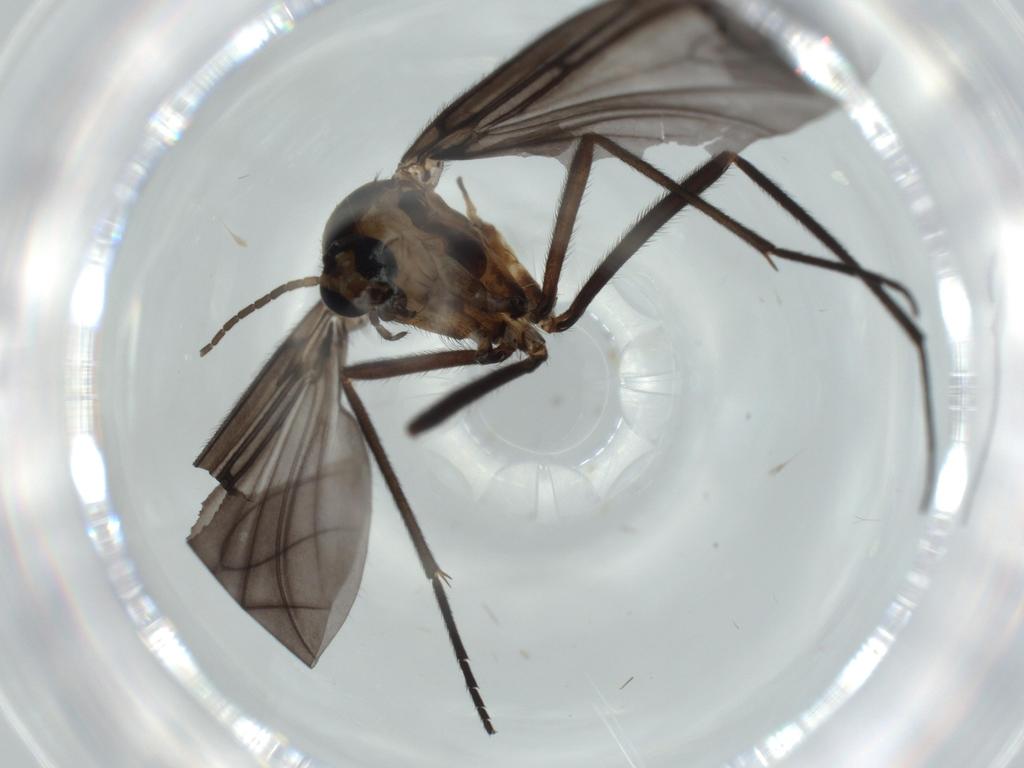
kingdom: Animalia
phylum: Arthropoda
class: Insecta
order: Diptera
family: Sciaridae
